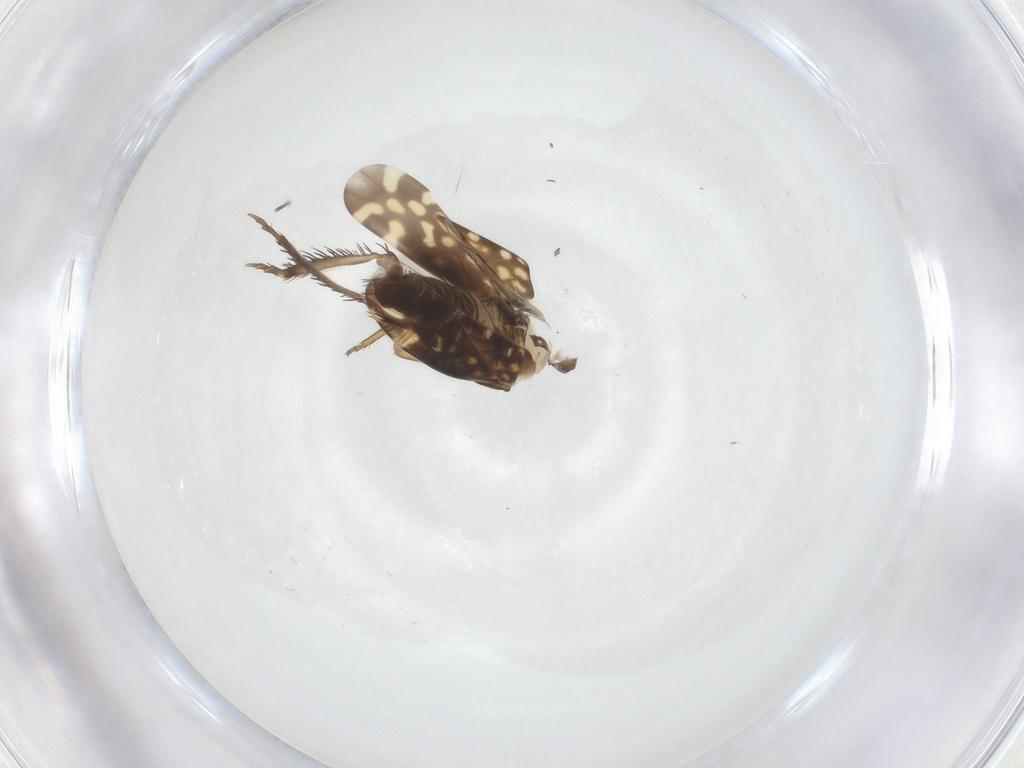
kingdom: Animalia
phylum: Arthropoda
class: Insecta
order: Hemiptera
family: Cicadellidae
